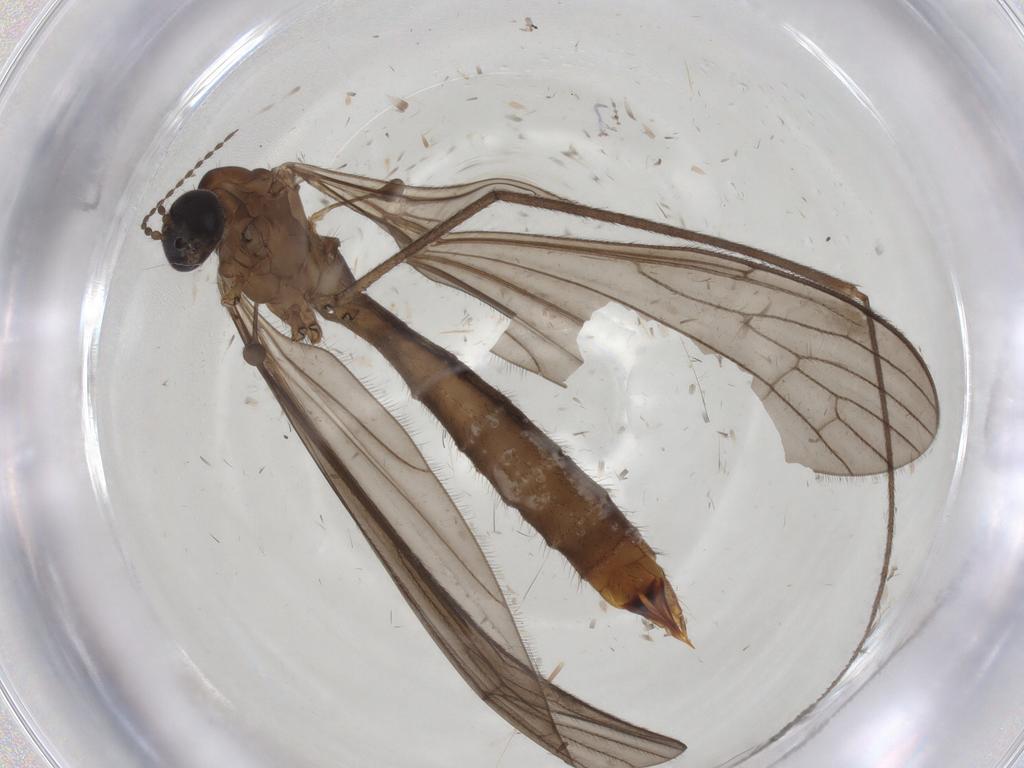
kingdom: Animalia
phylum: Arthropoda
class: Insecta
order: Diptera
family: Limoniidae
